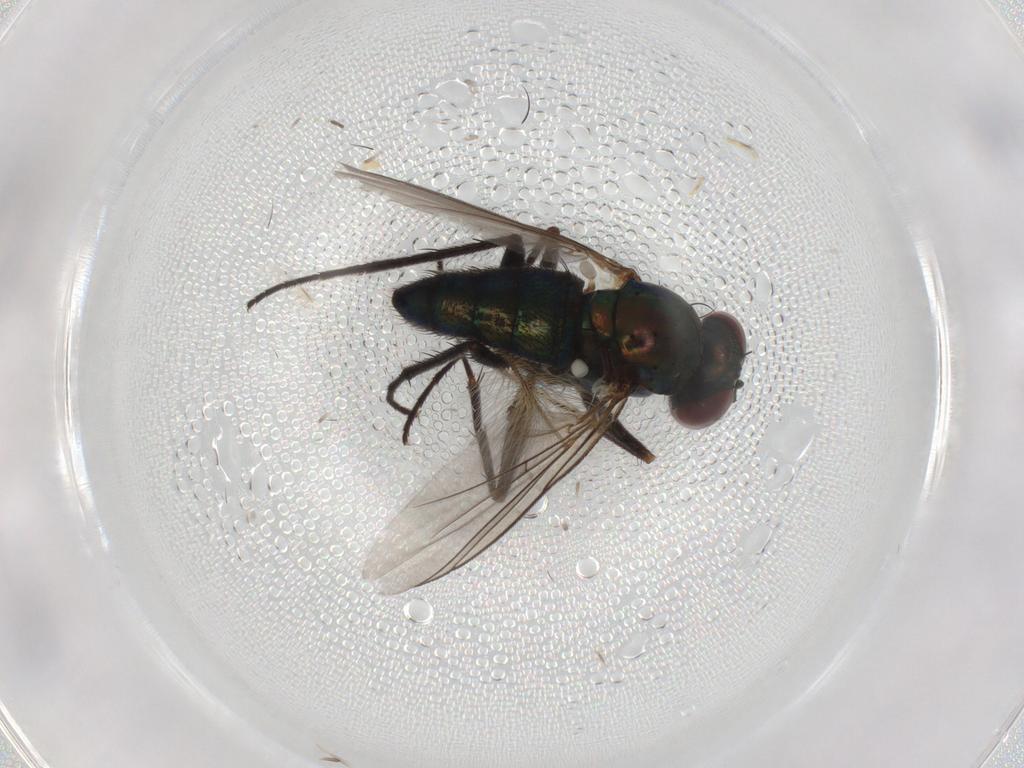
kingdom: Animalia
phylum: Arthropoda
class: Insecta
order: Diptera
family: Dolichopodidae
